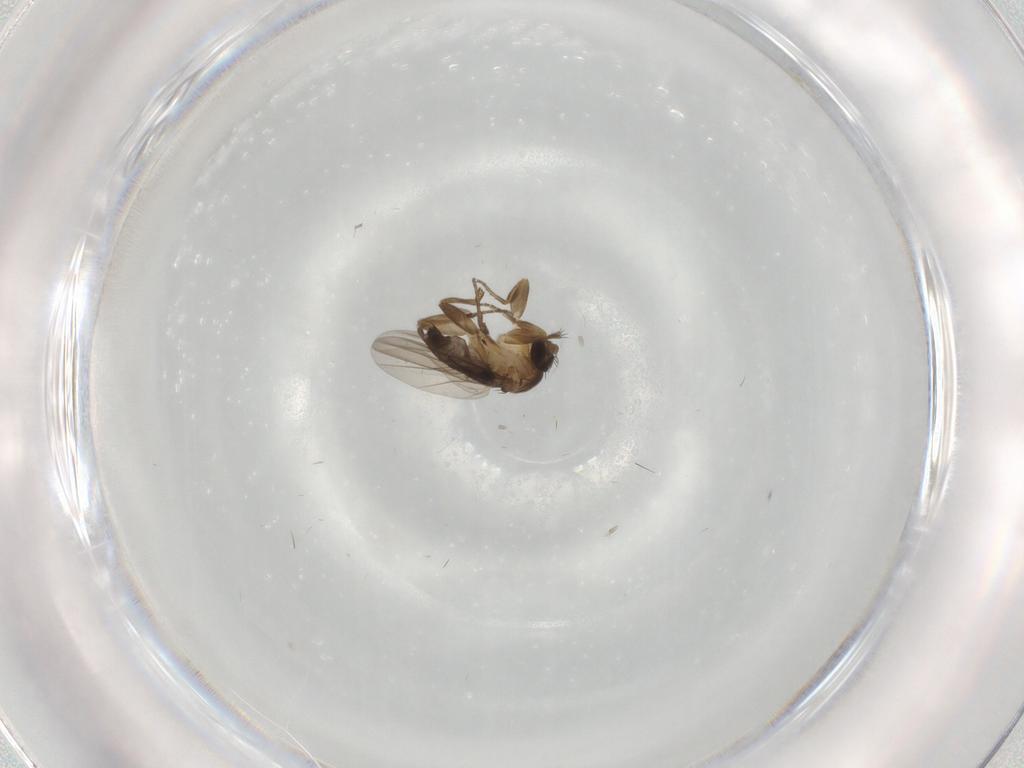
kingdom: Animalia
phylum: Arthropoda
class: Insecta
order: Diptera
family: Phoridae
